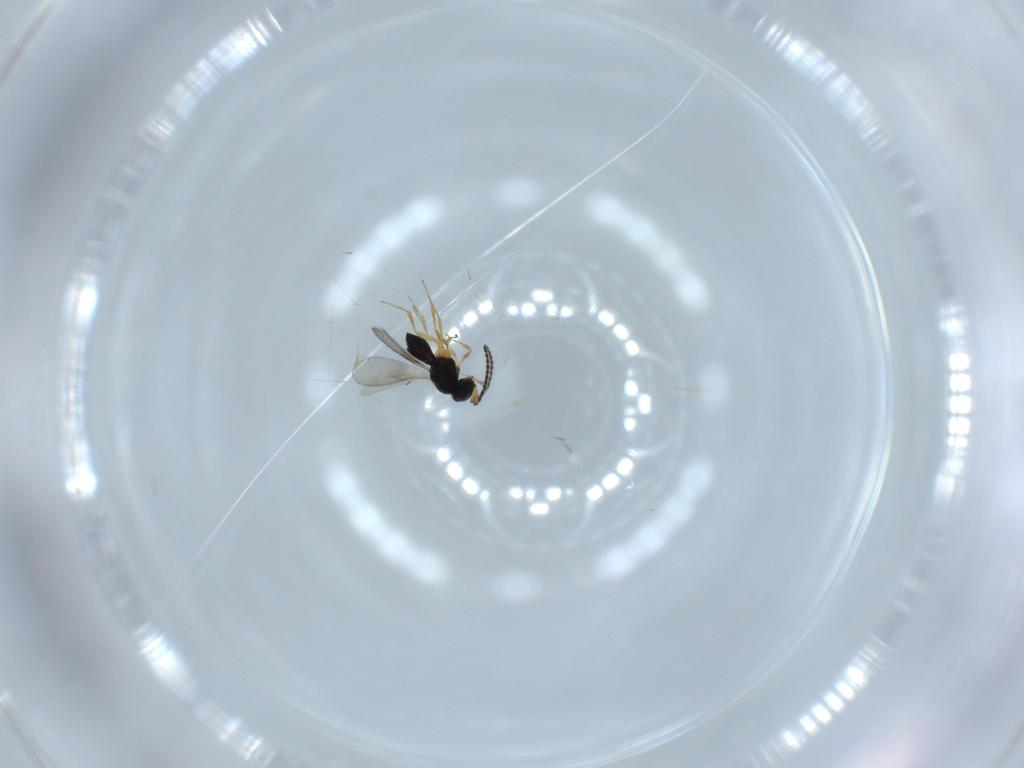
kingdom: Animalia
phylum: Arthropoda
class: Insecta
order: Hymenoptera
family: Scelionidae
